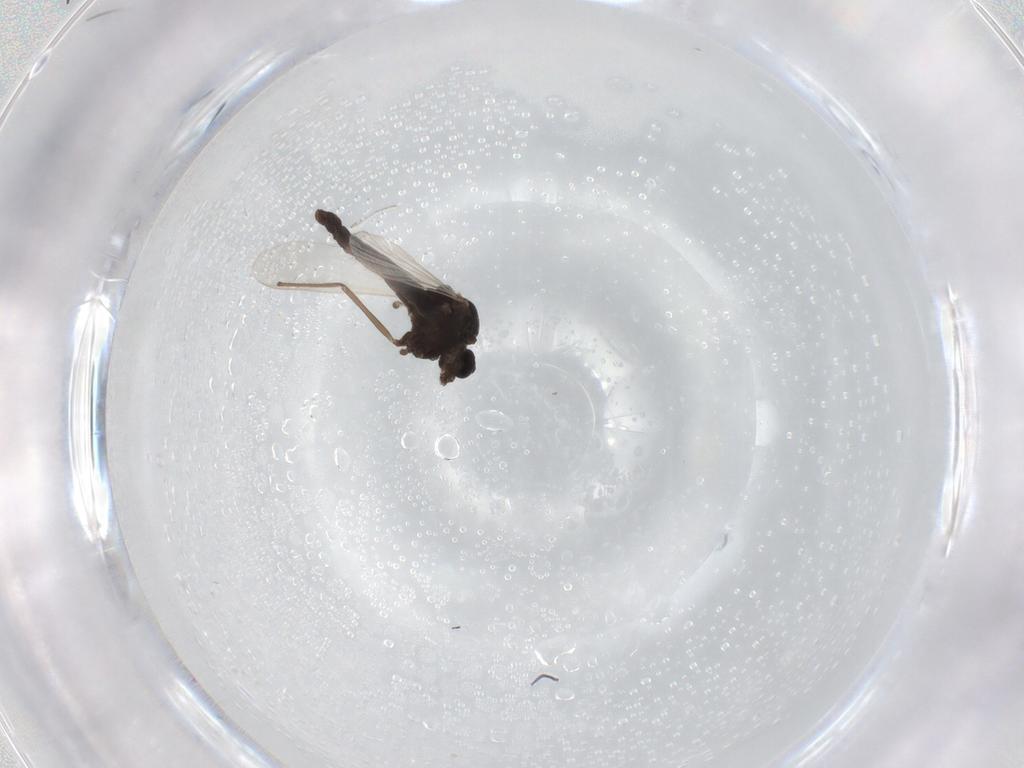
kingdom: Animalia
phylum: Arthropoda
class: Insecta
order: Diptera
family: Chironomidae
